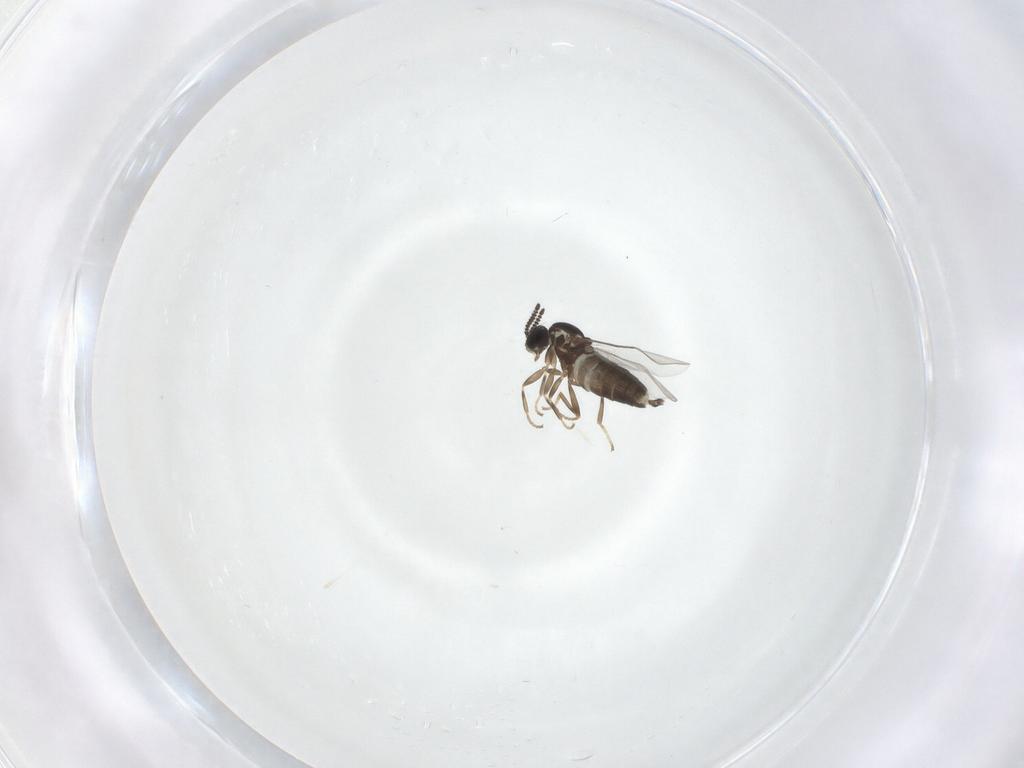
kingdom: Animalia
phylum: Arthropoda
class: Insecta
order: Diptera
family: Scatopsidae
